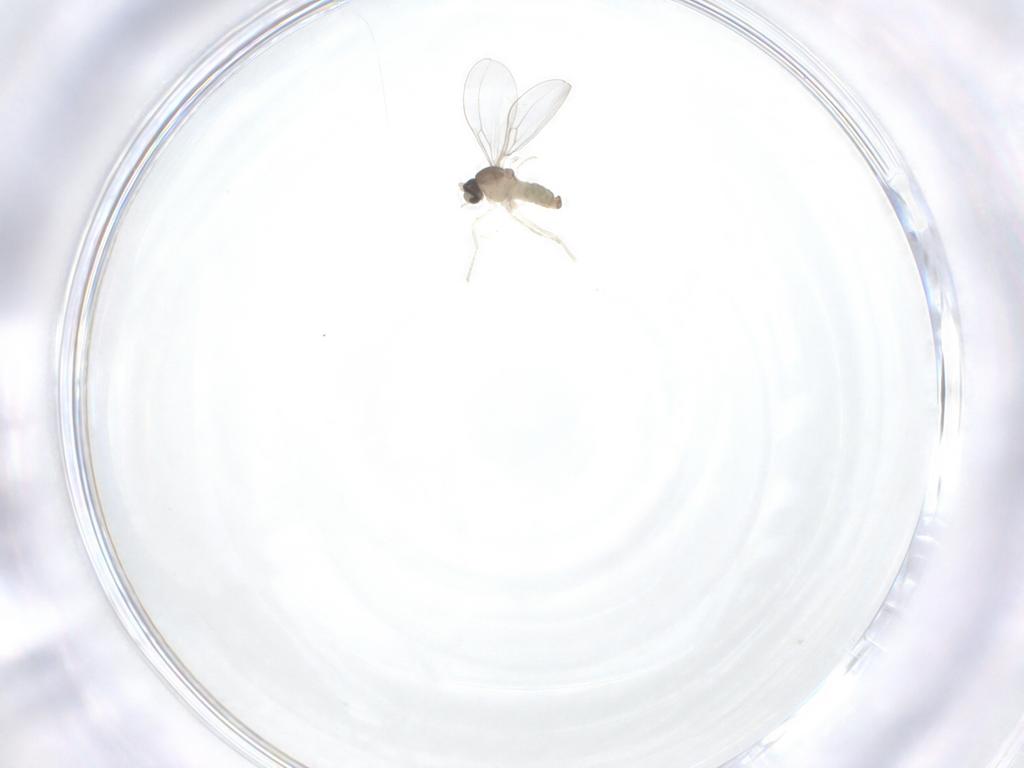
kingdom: Animalia
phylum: Arthropoda
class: Insecta
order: Diptera
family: Cecidomyiidae
